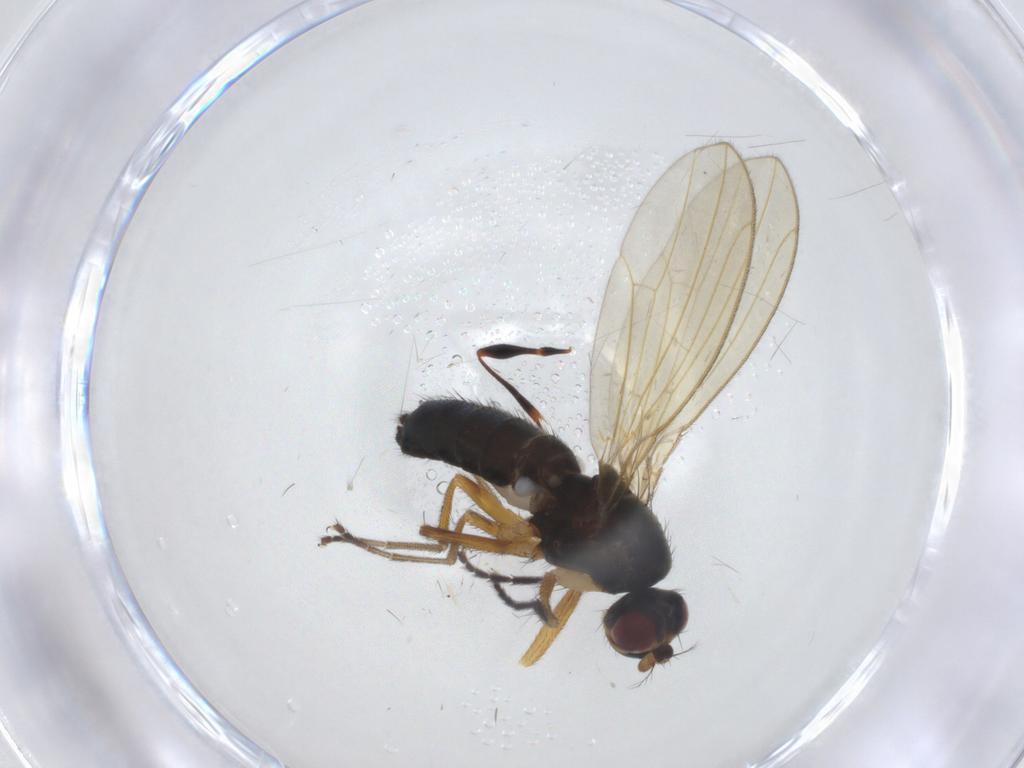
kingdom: Animalia
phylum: Arthropoda
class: Insecta
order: Diptera
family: Drosophilidae
